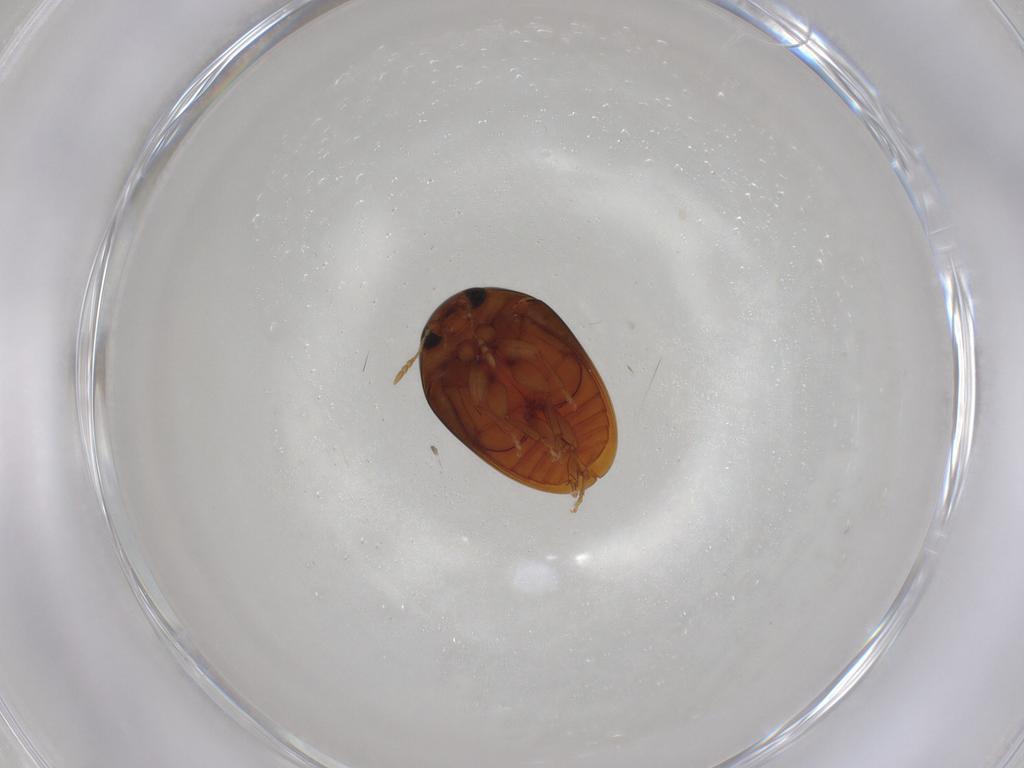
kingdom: Animalia
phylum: Arthropoda
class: Insecta
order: Coleoptera
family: Phalacridae
